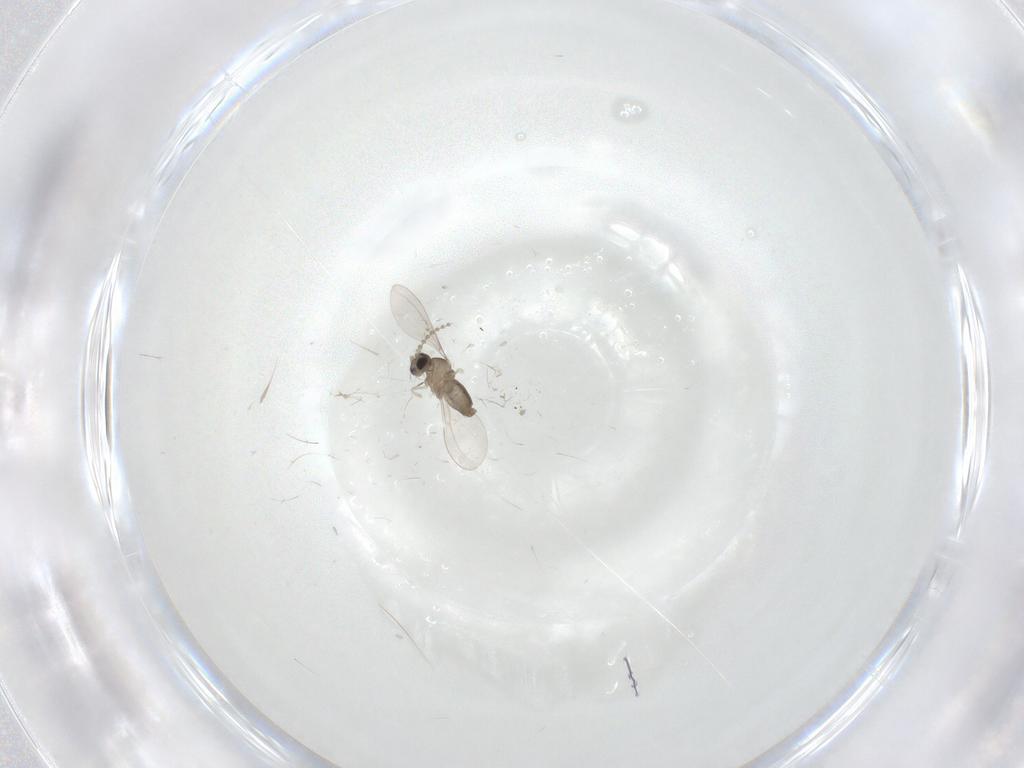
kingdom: Animalia
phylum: Arthropoda
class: Insecta
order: Diptera
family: Cecidomyiidae
